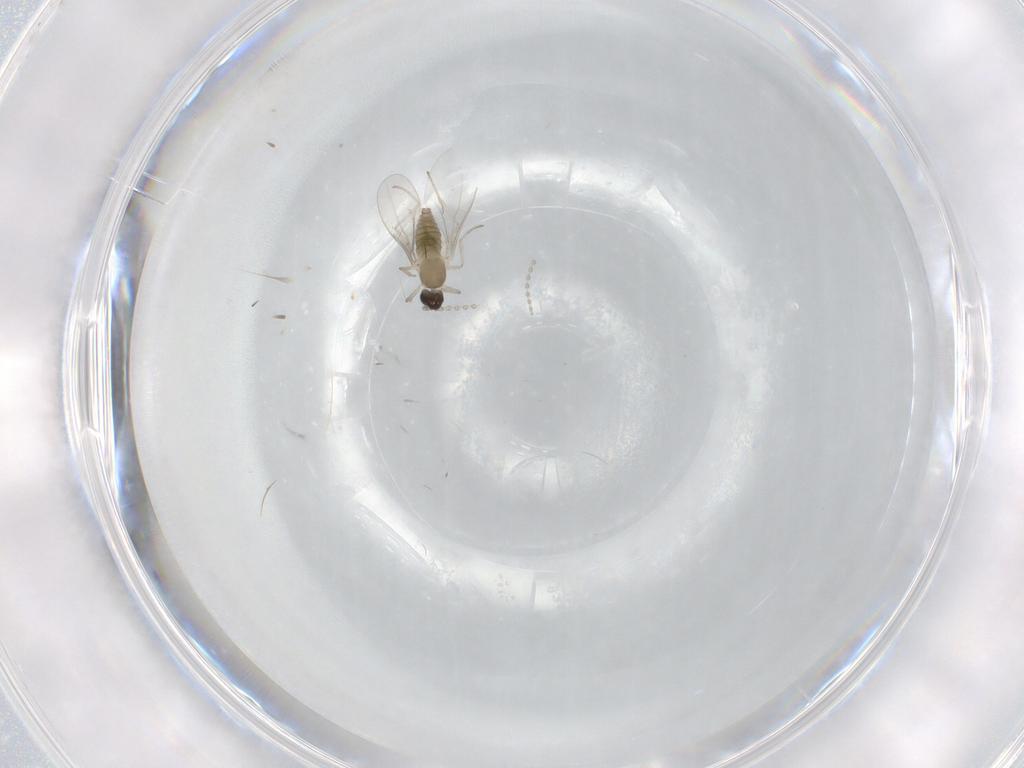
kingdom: Animalia
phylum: Arthropoda
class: Insecta
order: Diptera
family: Cecidomyiidae
